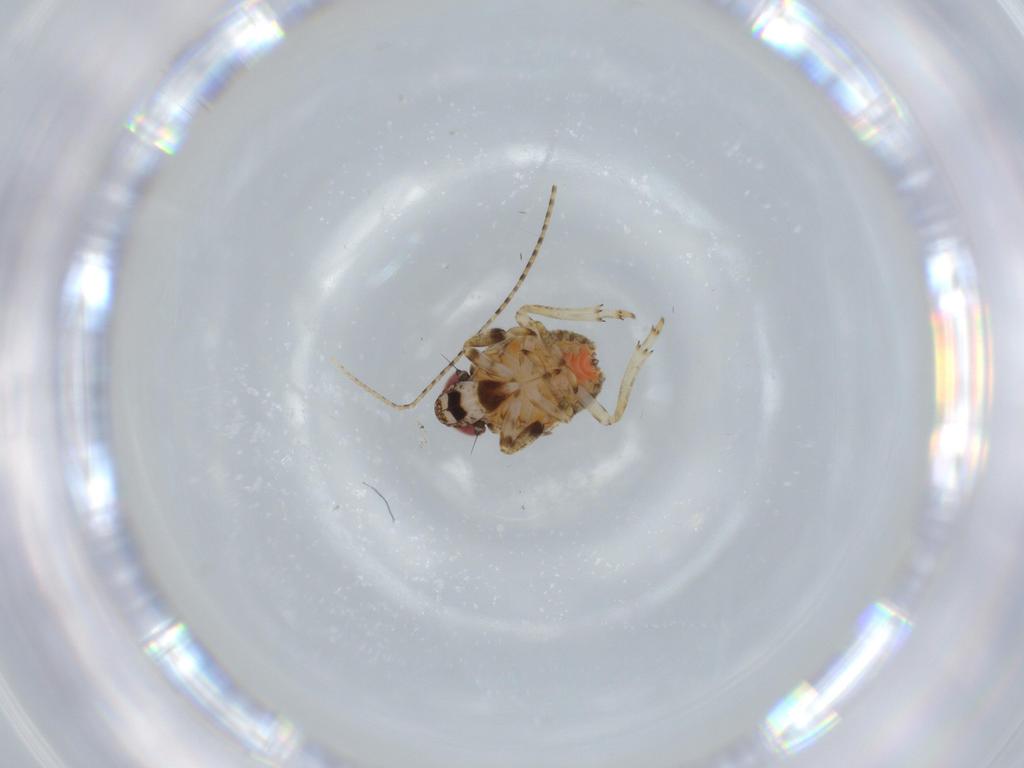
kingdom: Animalia
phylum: Arthropoda
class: Insecta
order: Hemiptera
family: Issidae
